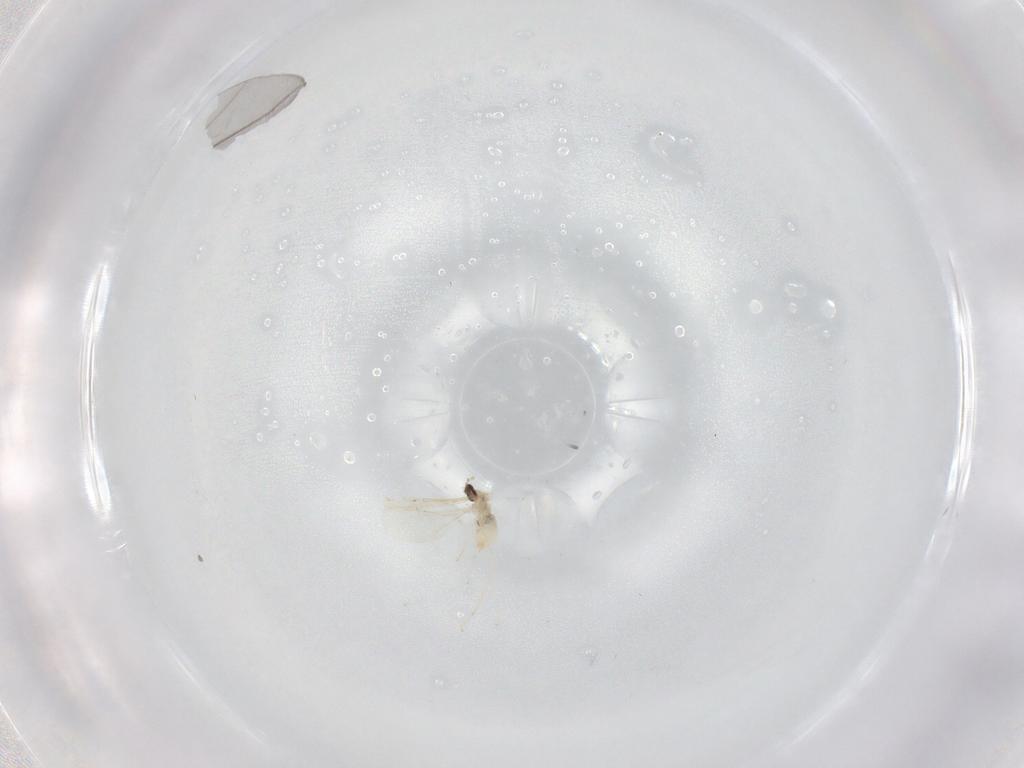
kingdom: Animalia
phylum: Arthropoda
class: Insecta
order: Diptera
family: Cecidomyiidae
